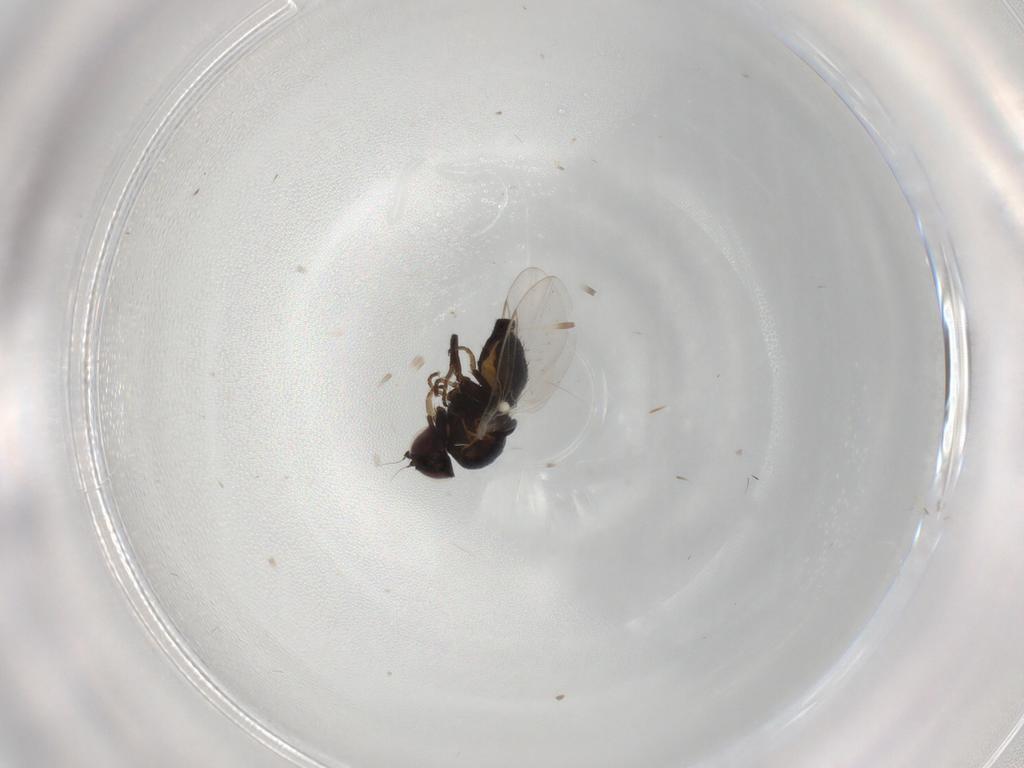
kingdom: Animalia
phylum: Arthropoda
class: Insecta
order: Diptera
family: Agromyzidae
